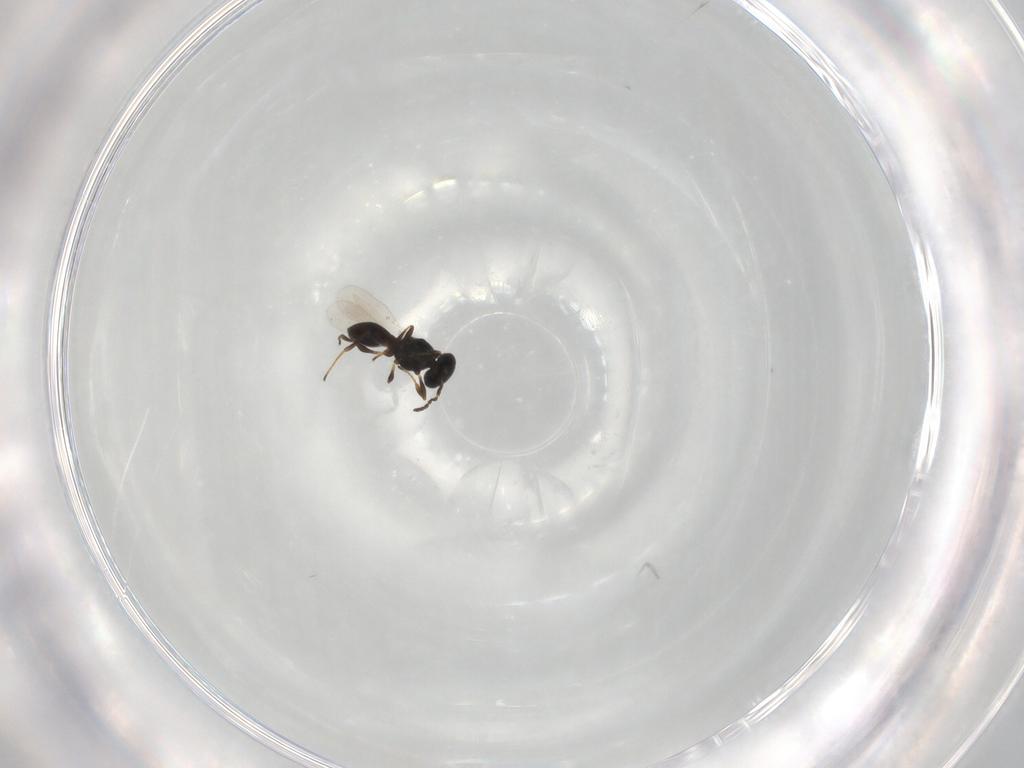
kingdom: Animalia
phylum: Arthropoda
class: Insecta
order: Hymenoptera
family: Platygastridae
